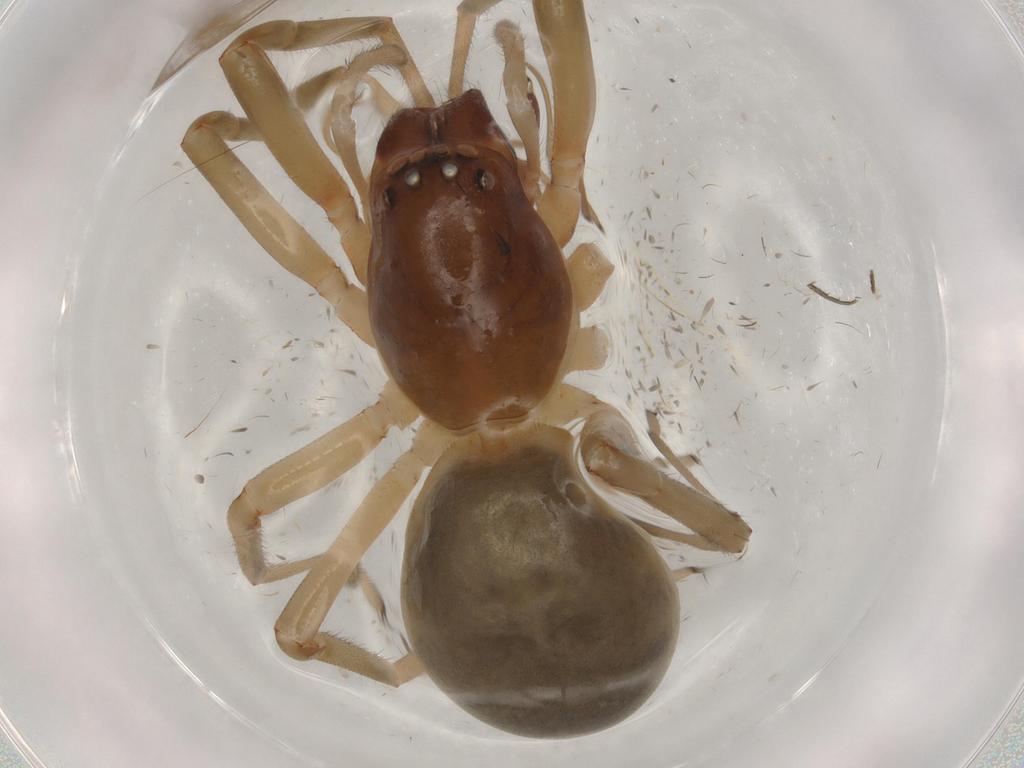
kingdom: Animalia
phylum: Arthropoda
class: Arachnida
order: Araneae
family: Trachelidae
